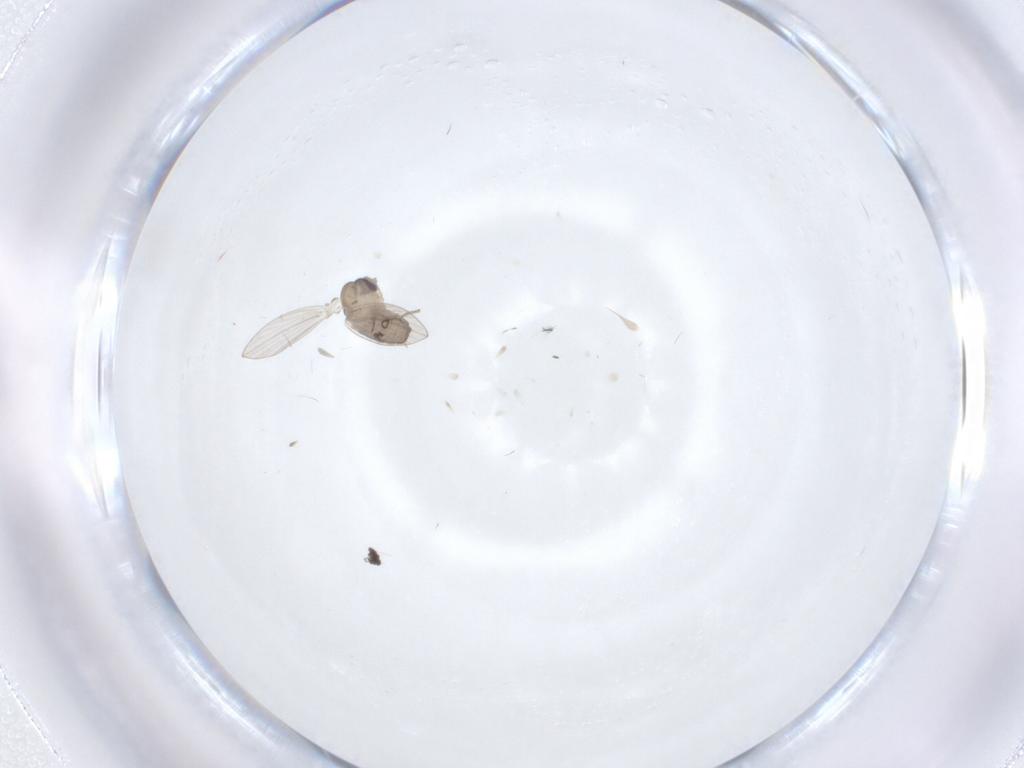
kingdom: Animalia
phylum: Arthropoda
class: Insecta
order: Diptera
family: Psychodidae
